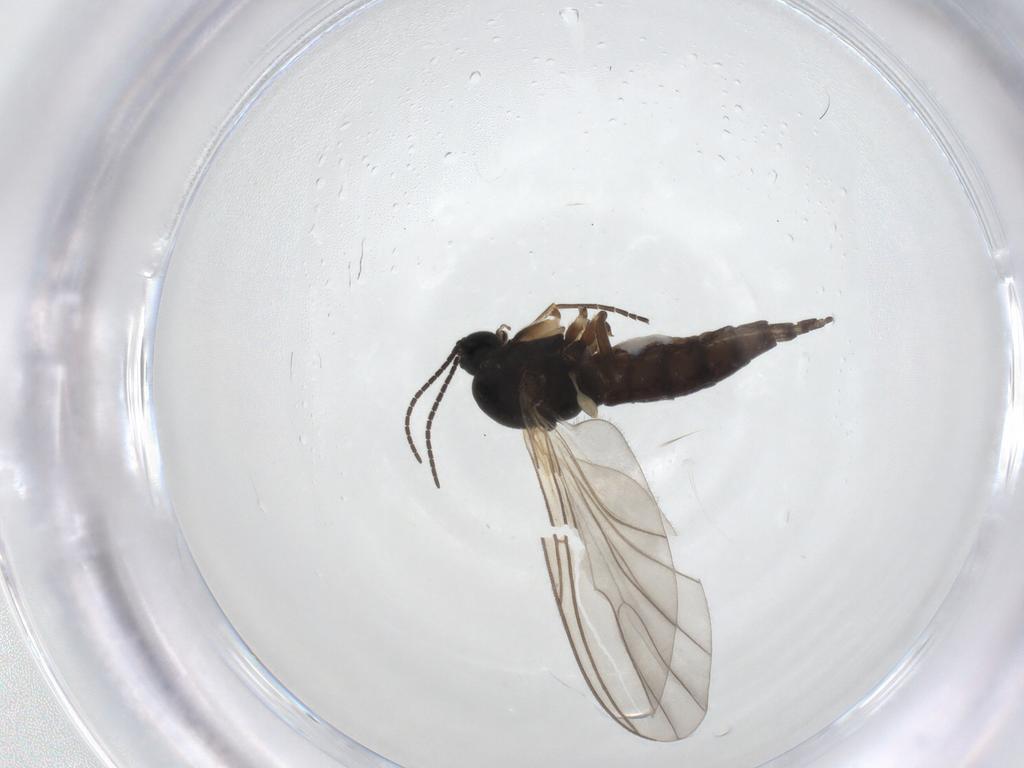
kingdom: Animalia
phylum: Arthropoda
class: Insecta
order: Diptera
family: Sciaridae
